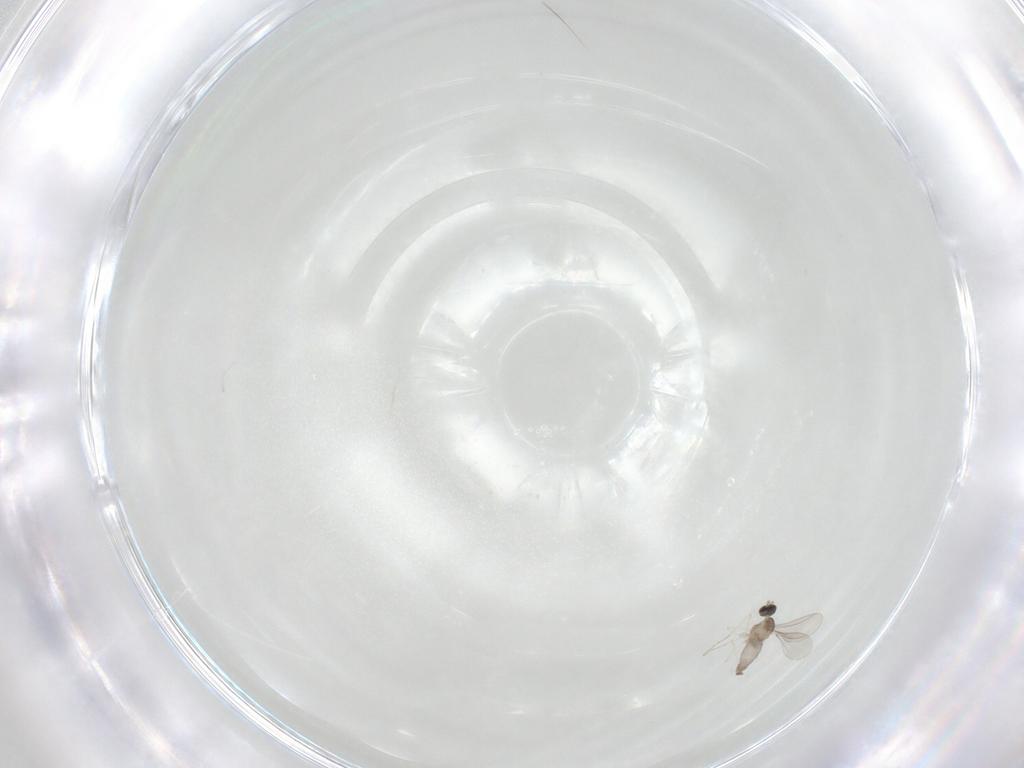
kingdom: Animalia
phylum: Arthropoda
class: Insecta
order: Diptera
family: Cecidomyiidae
